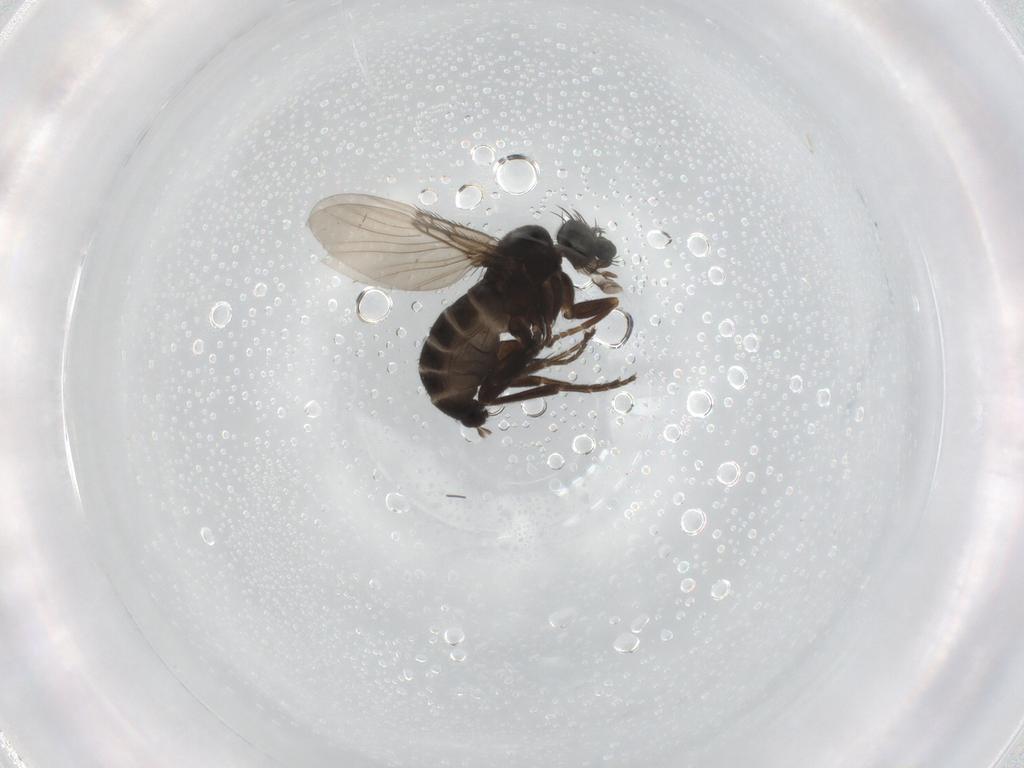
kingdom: Animalia
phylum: Arthropoda
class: Insecta
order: Diptera
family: Phoridae
